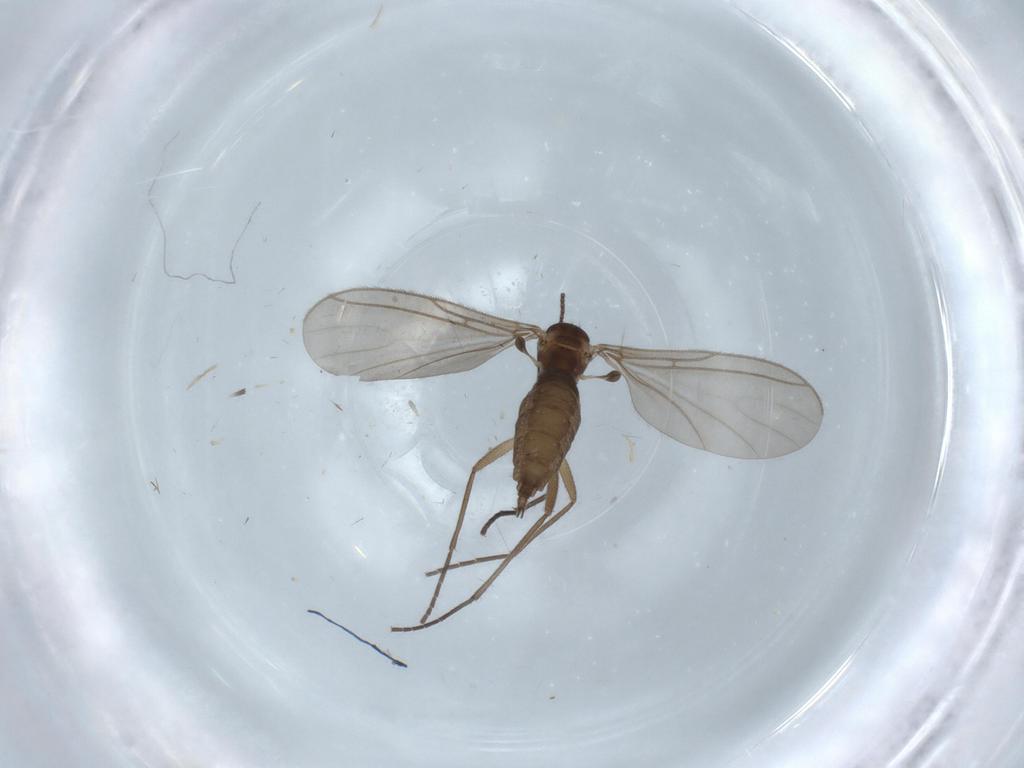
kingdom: Animalia
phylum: Arthropoda
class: Insecta
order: Diptera
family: Sciaridae
